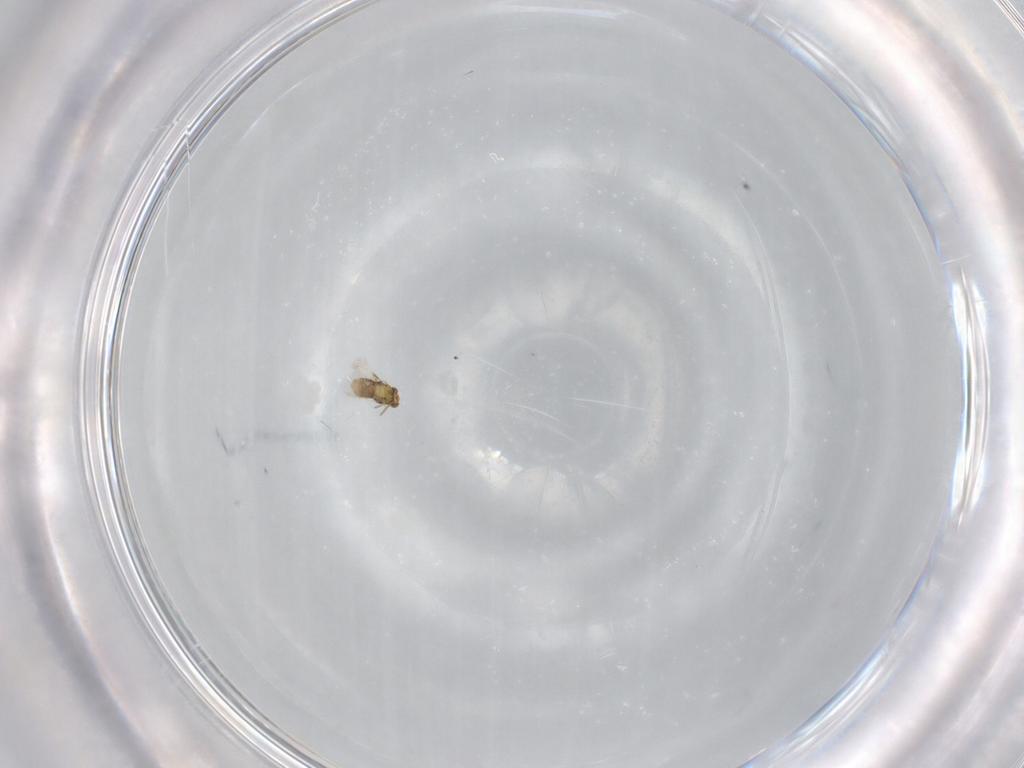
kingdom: Animalia
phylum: Arthropoda
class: Insecta
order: Hymenoptera
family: Aphelinidae
